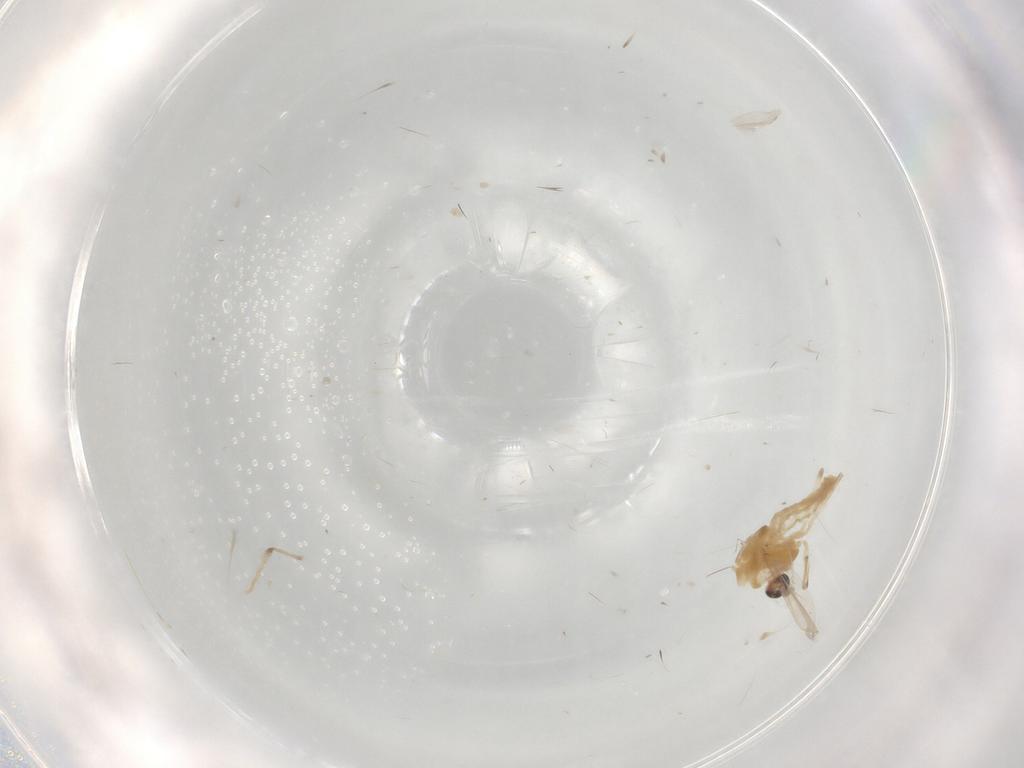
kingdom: Animalia
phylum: Arthropoda
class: Insecta
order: Diptera
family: Chironomidae
